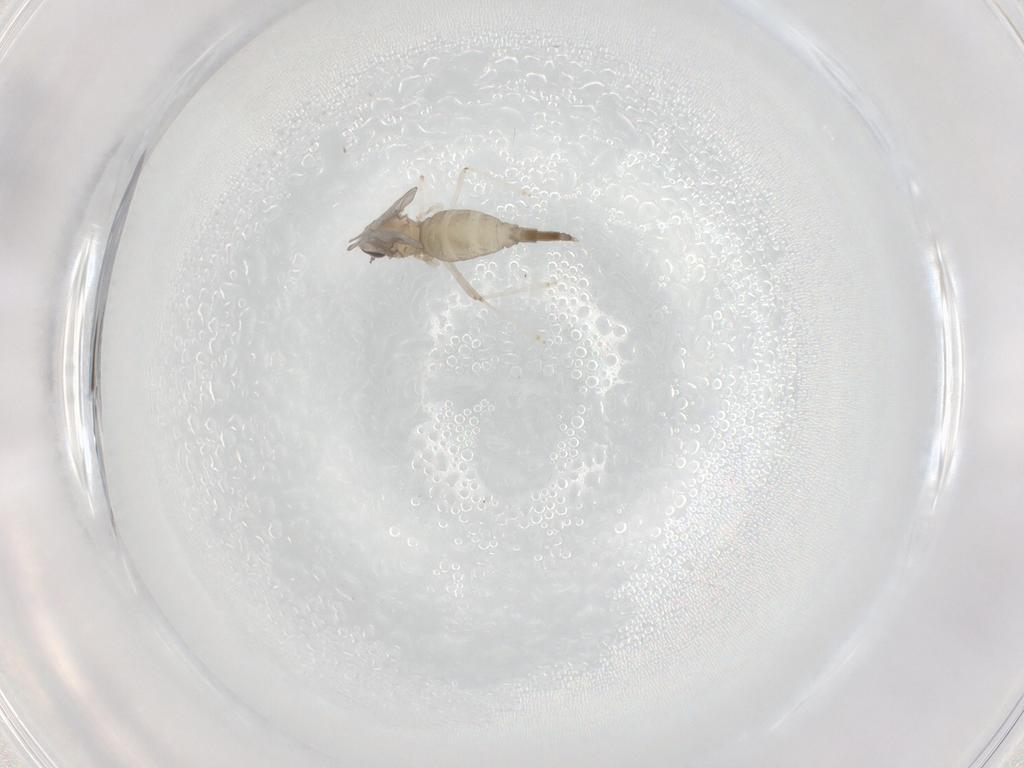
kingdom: Animalia
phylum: Arthropoda
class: Insecta
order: Diptera
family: Cecidomyiidae
